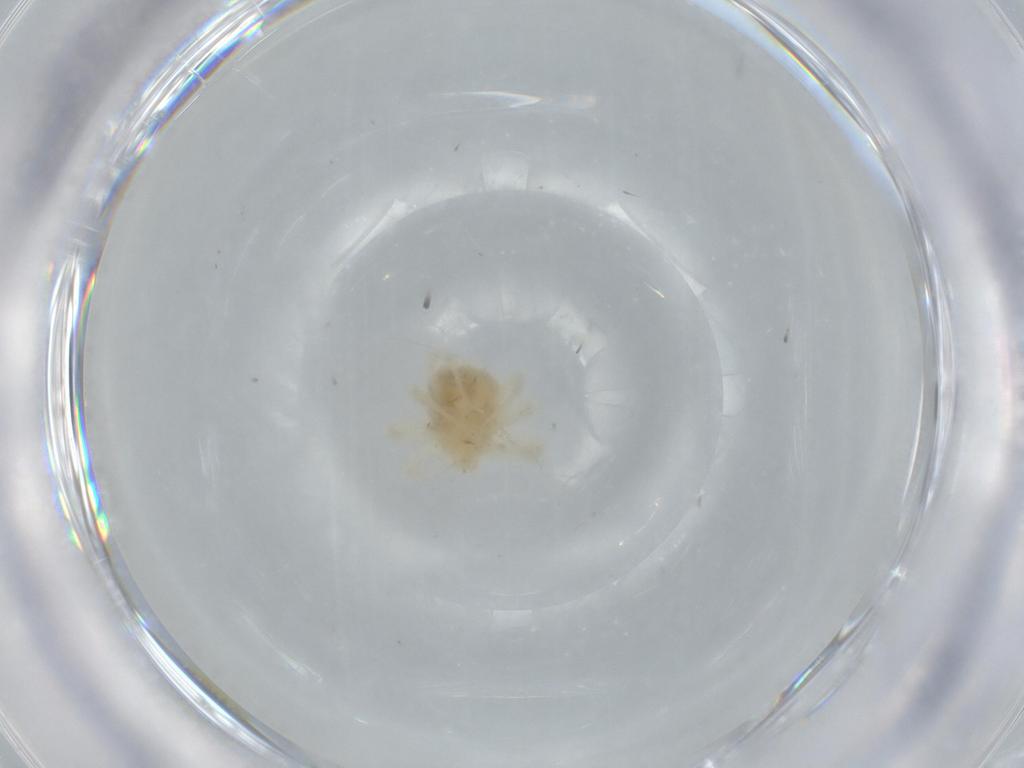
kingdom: Animalia
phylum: Arthropoda
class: Arachnida
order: Trombidiformes
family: Anystidae
